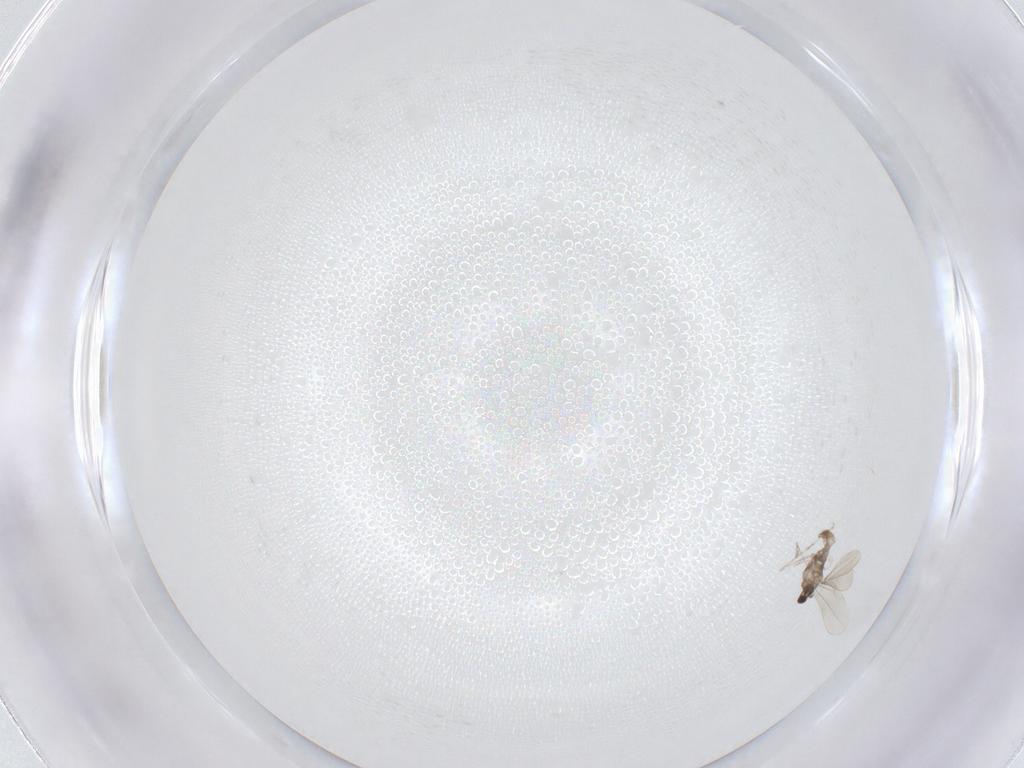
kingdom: Animalia
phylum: Arthropoda
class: Insecta
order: Diptera
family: Cecidomyiidae
